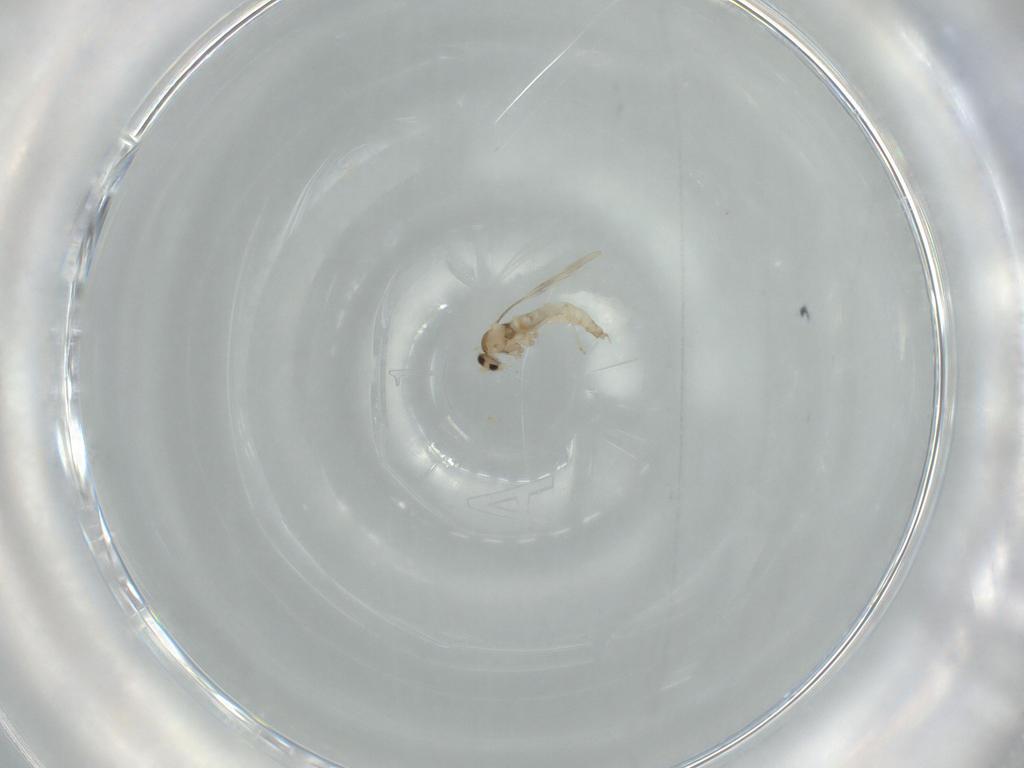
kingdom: Animalia
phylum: Arthropoda
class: Insecta
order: Diptera
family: Cecidomyiidae
